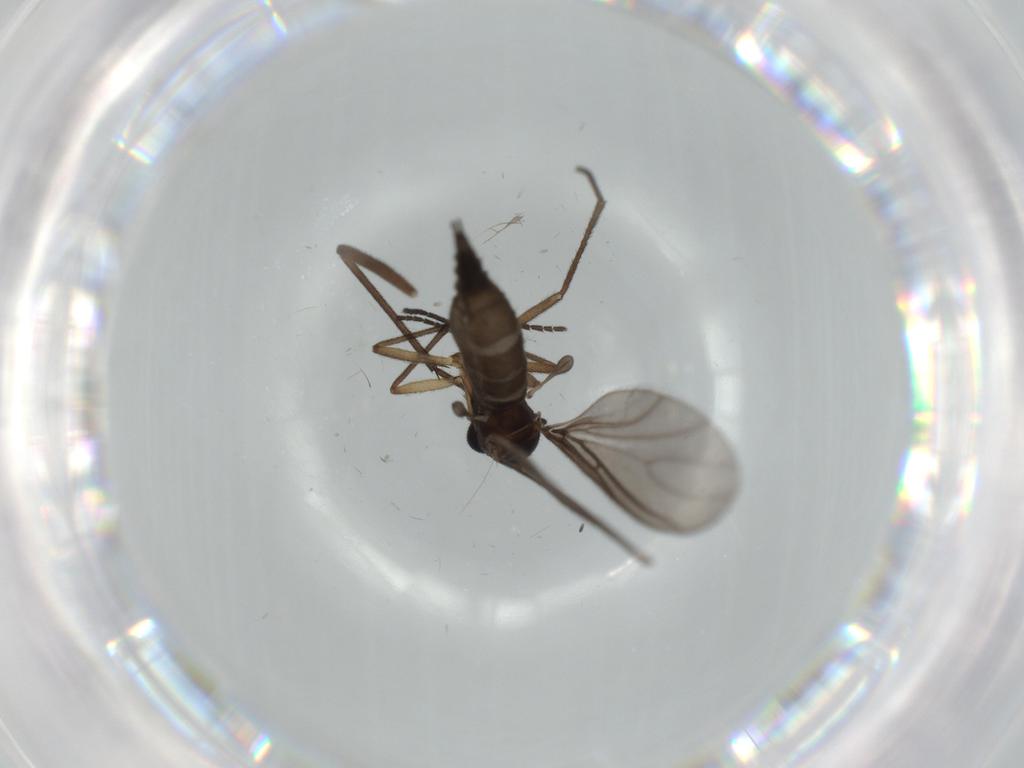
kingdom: Animalia
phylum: Arthropoda
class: Insecta
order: Diptera
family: Sciaridae
